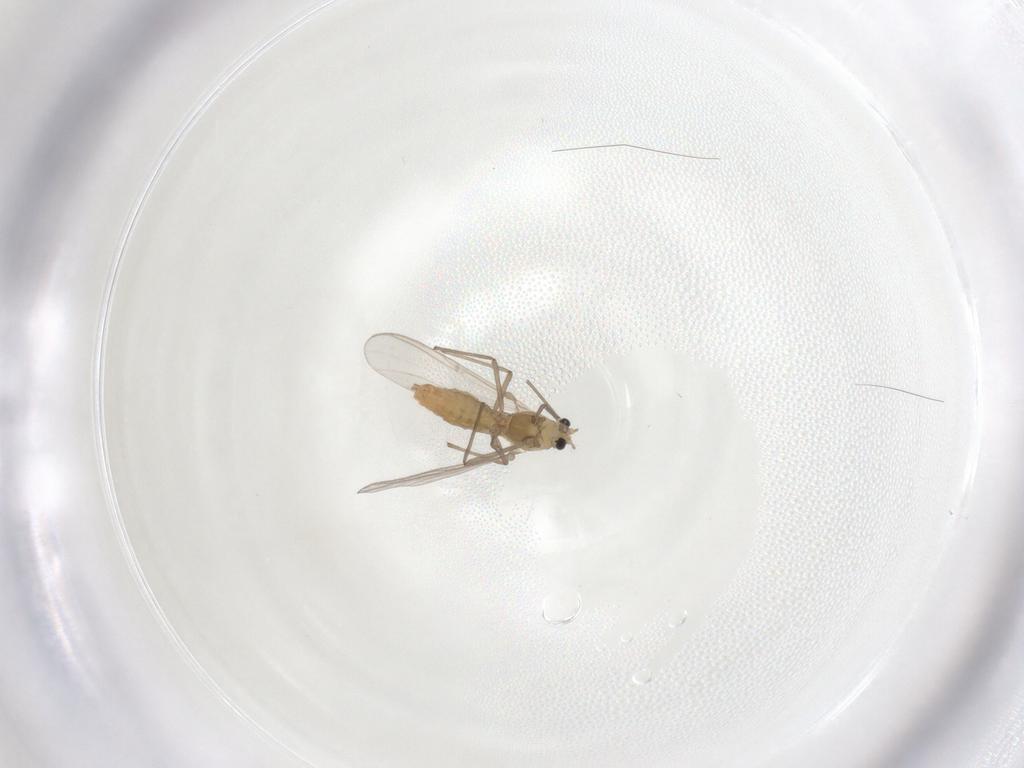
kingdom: Animalia
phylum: Arthropoda
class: Insecta
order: Diptera
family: Chironomidae
